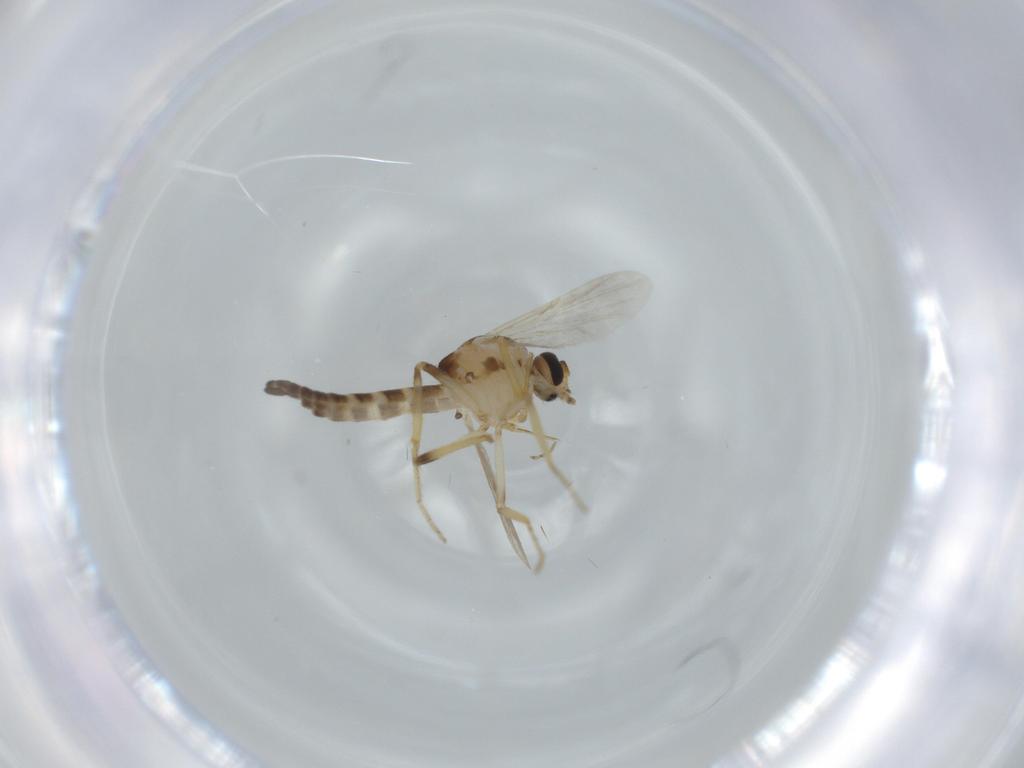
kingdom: Animalia
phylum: Arthropoda
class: Insecta
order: Diptera
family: Ceratopogonidae
